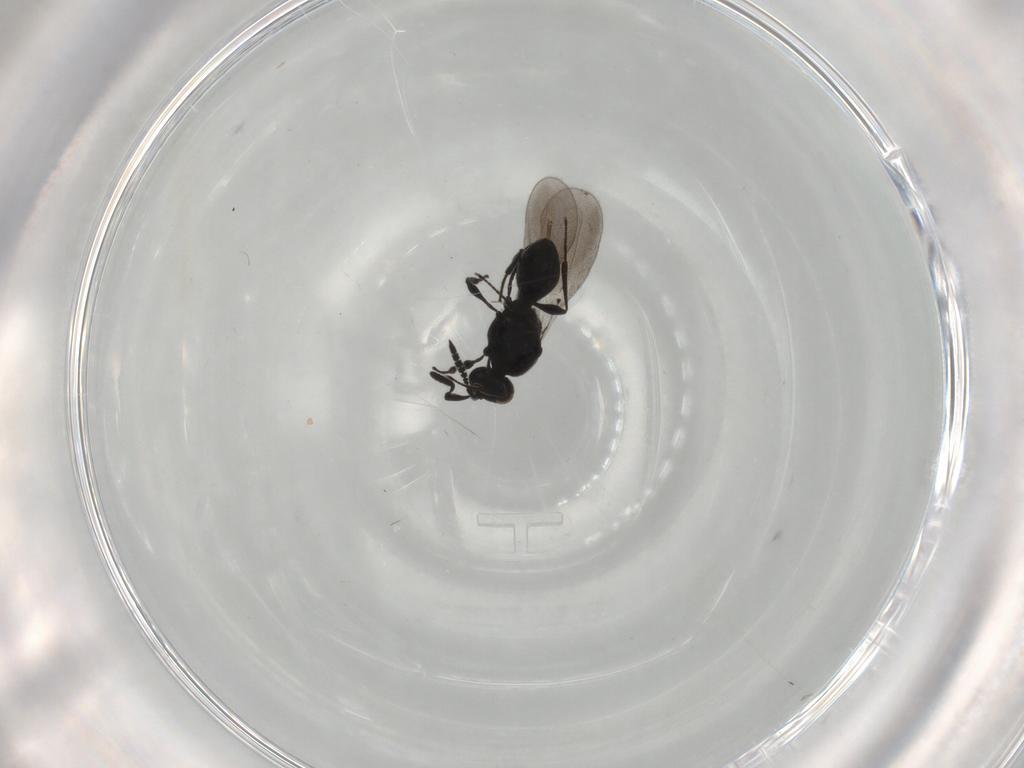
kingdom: Animalia
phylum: Arthropoda
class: Insecta
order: Hymenoptera
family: Platygastridae
